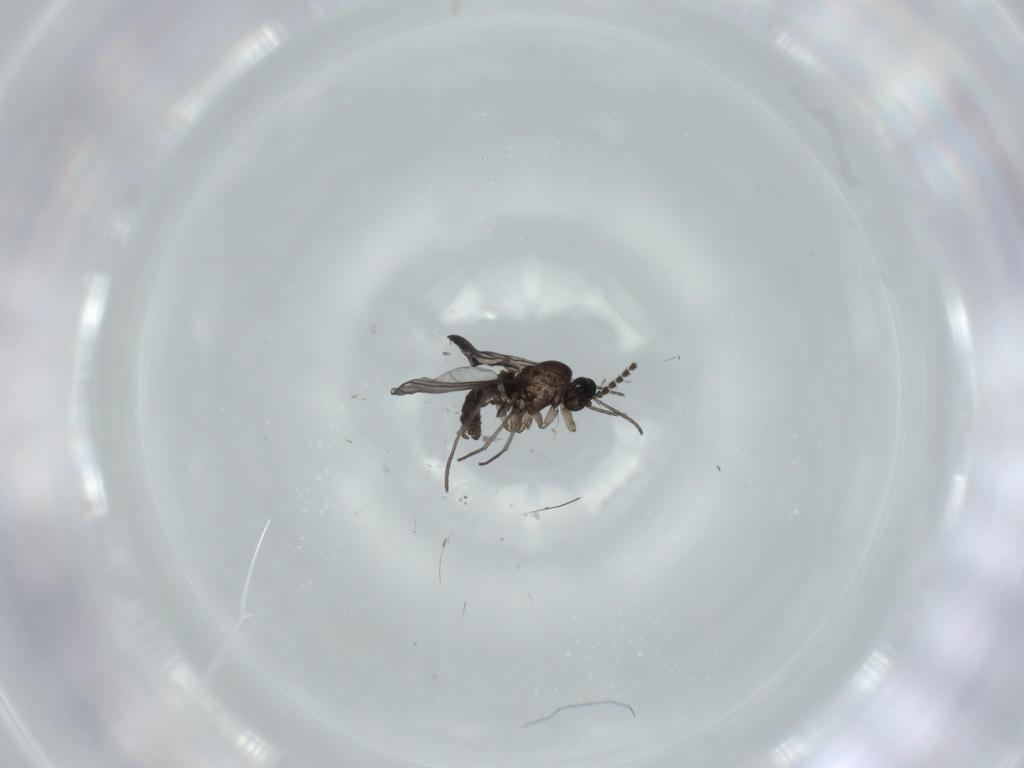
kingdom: Animalia
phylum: Arthropoda
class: Insecta
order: Diptera
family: Sciaridae
